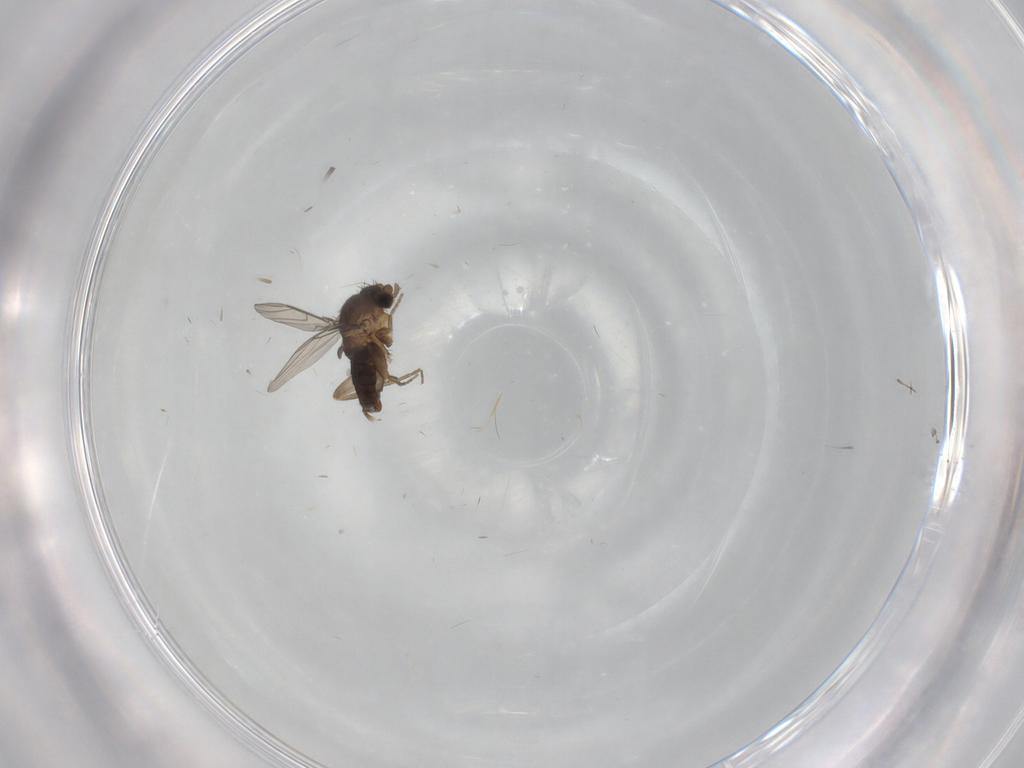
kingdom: Animalia
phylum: Arthropoda
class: Insecta
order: Diptera
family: Phoridae
